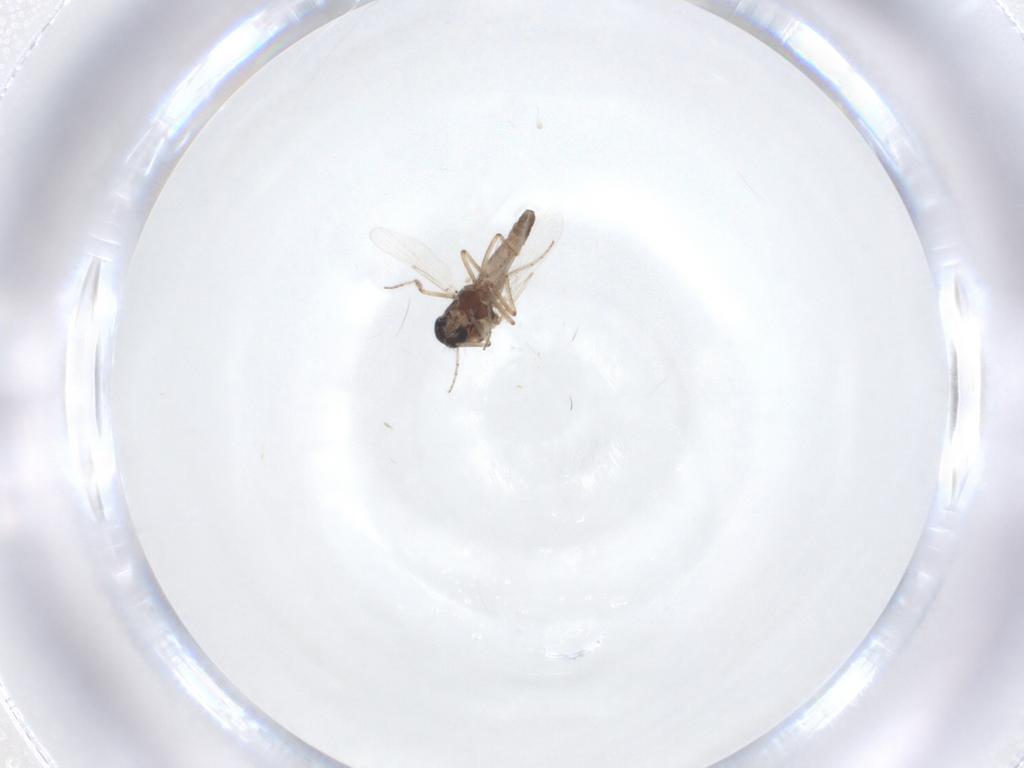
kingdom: Animalia
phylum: Arthropoda
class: Insecta
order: Diptera
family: Ceratopogonidae
